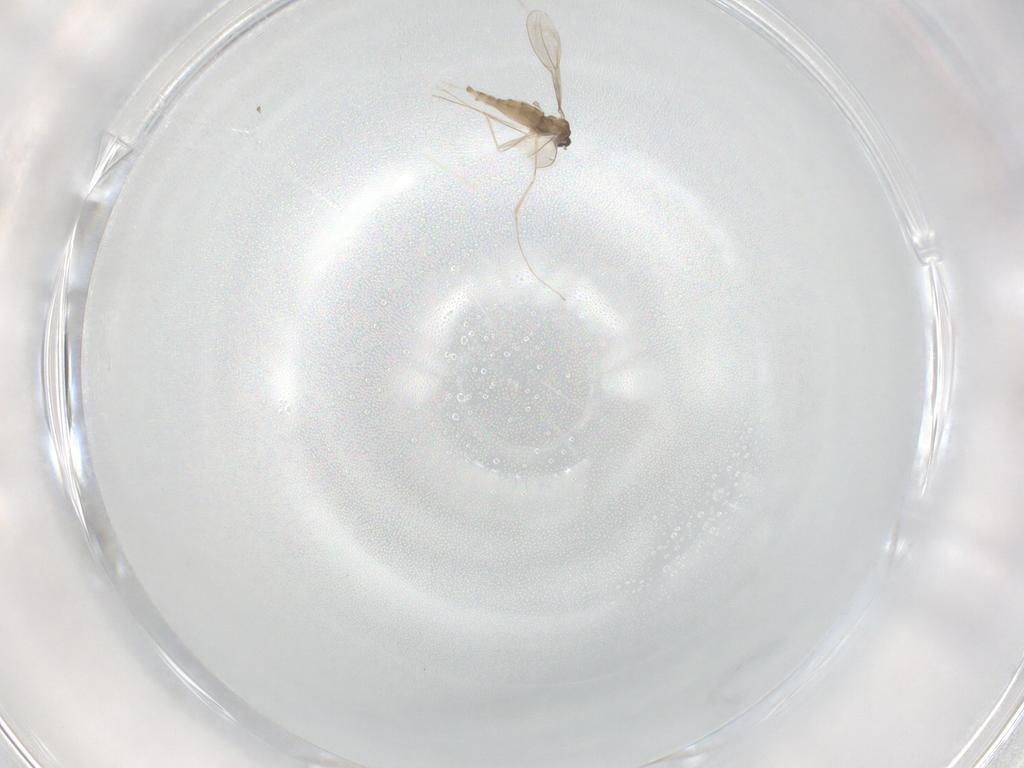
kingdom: Animalia
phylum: Arthropoda
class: Insecta
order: Diptera
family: Cecidomyiidae
